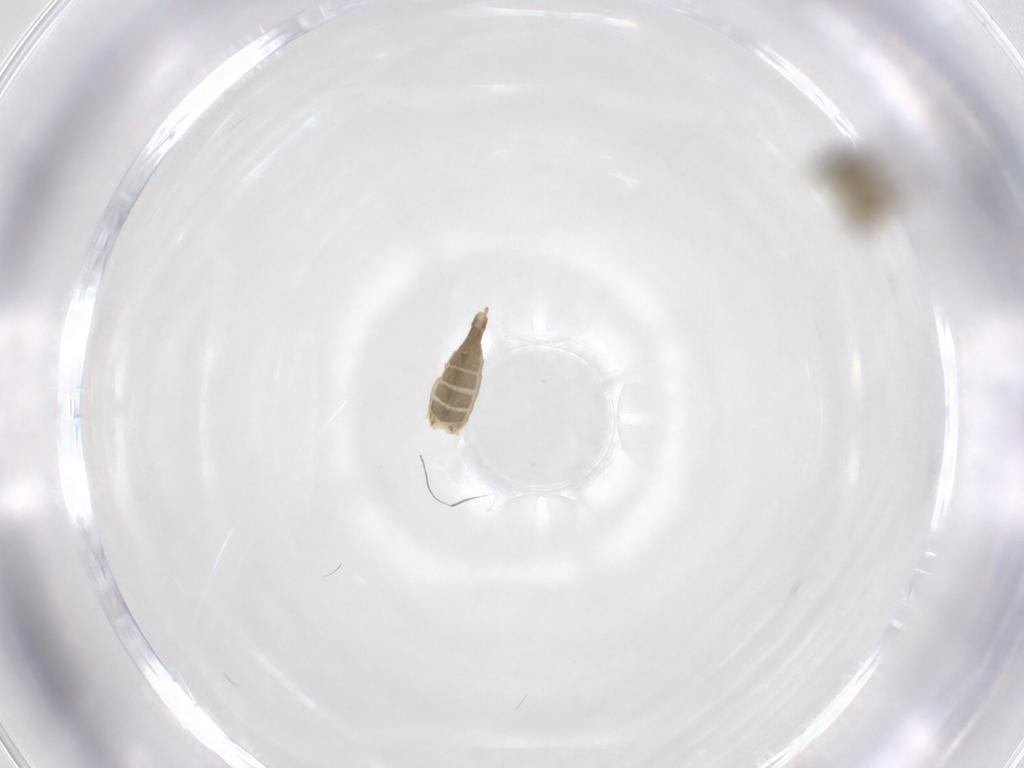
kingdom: Animalia
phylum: Arthropoda
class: Insecta
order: Diptera
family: Chironomidae
